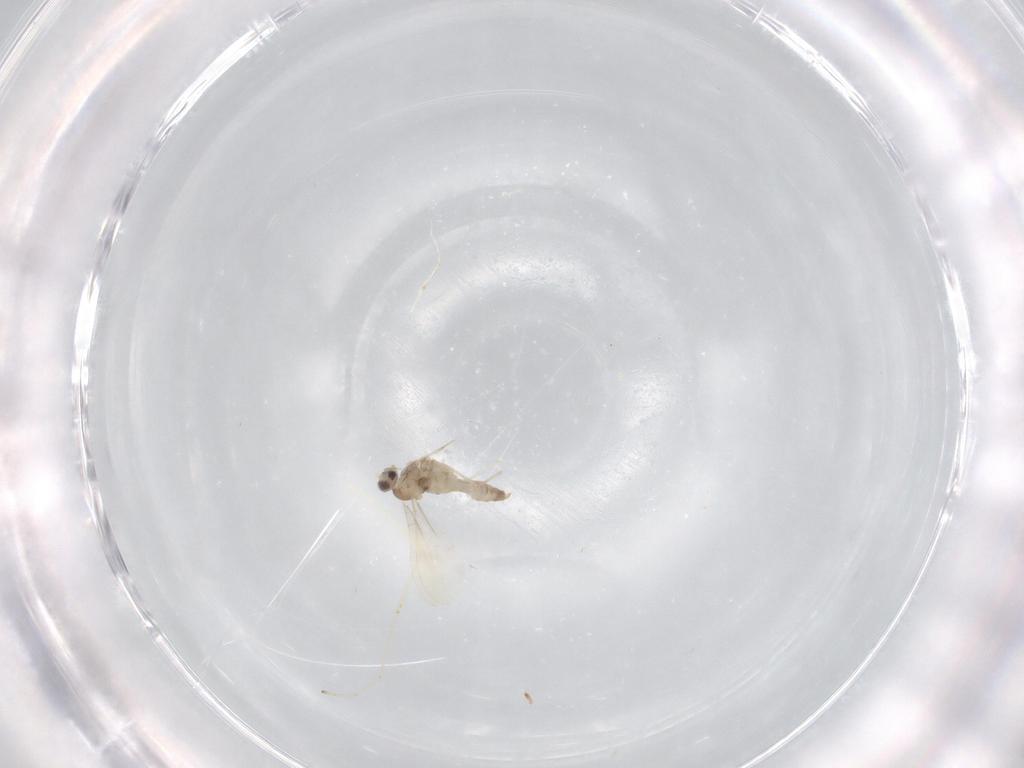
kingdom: Animalia
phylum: Arthropoda
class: Insecta
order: Diptera
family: Cecidomyiidae
